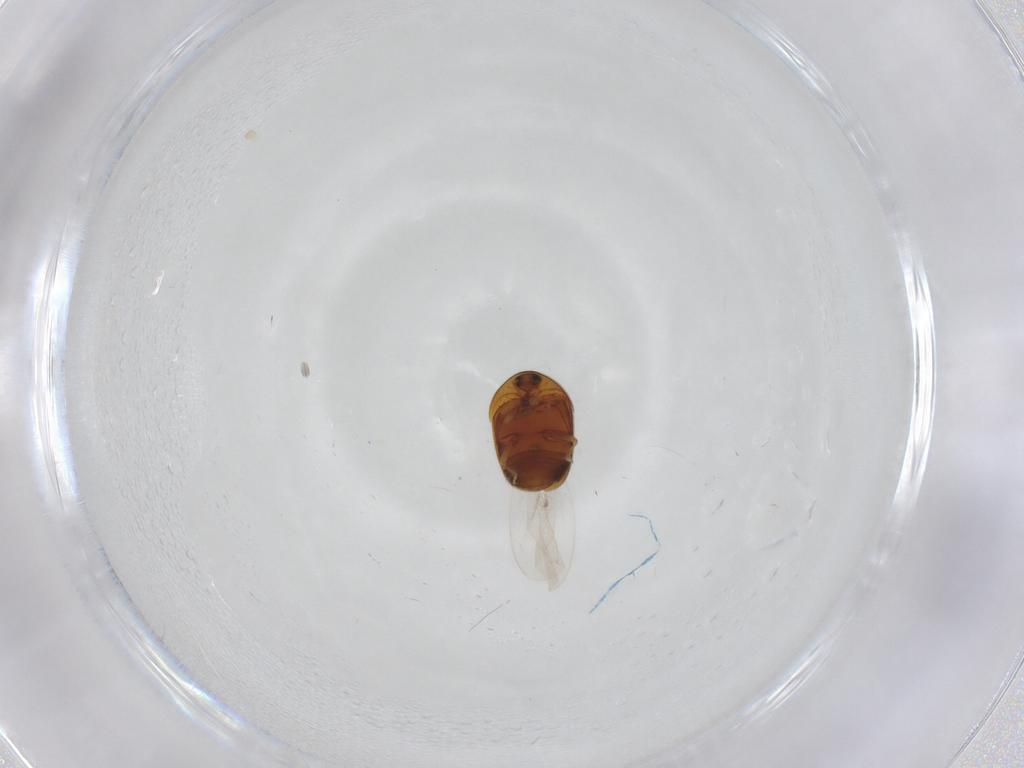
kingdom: Animalia
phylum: Arthropoda
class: Insecta
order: Coleoptera
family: Corylophidae
